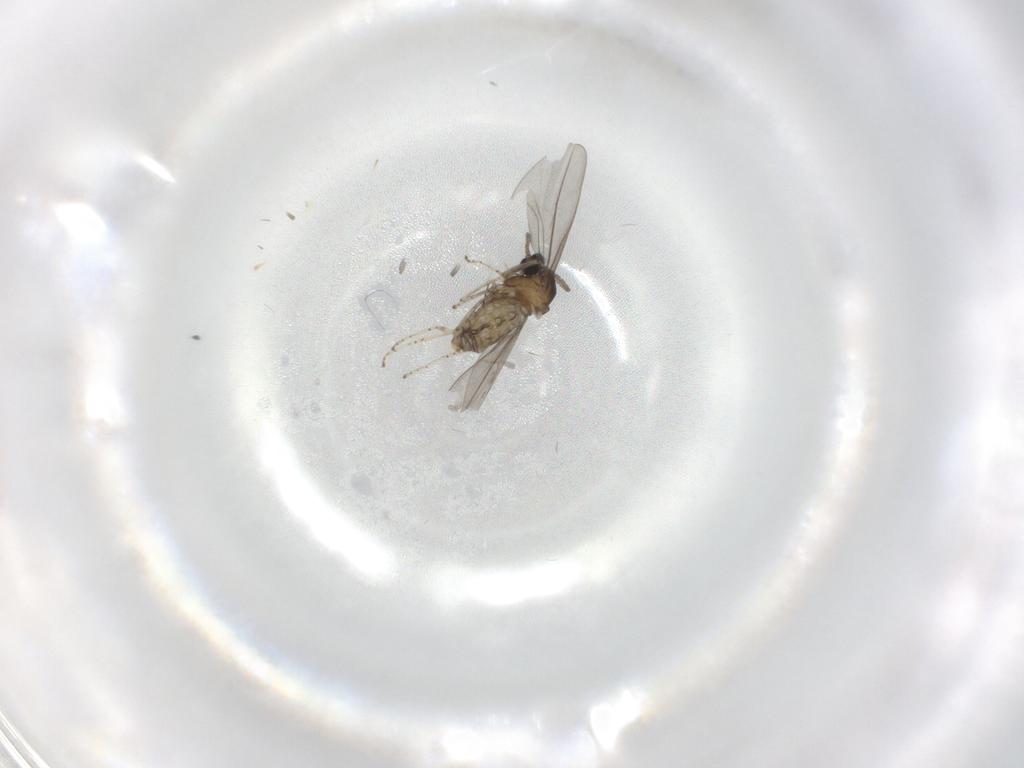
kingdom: Animalia
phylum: Arthropoda
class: Insecta
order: Diptera
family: Cecidomyiidae
